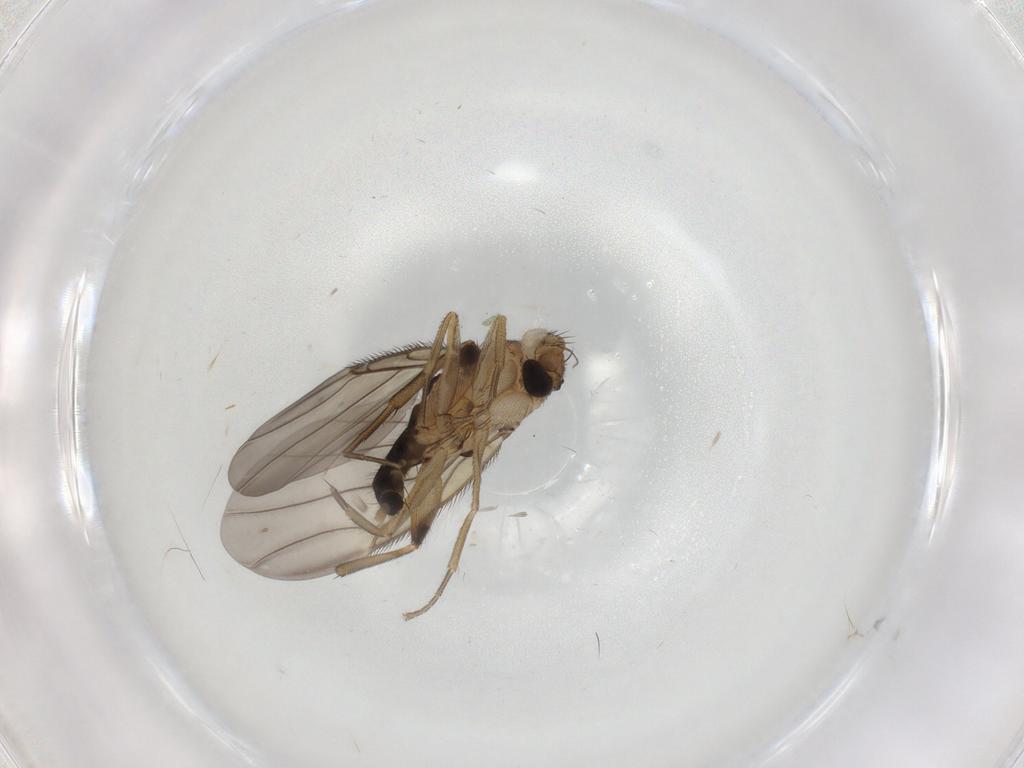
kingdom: Animalia
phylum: Arthropoda
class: Insecta
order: Diptera
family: Phoridae
